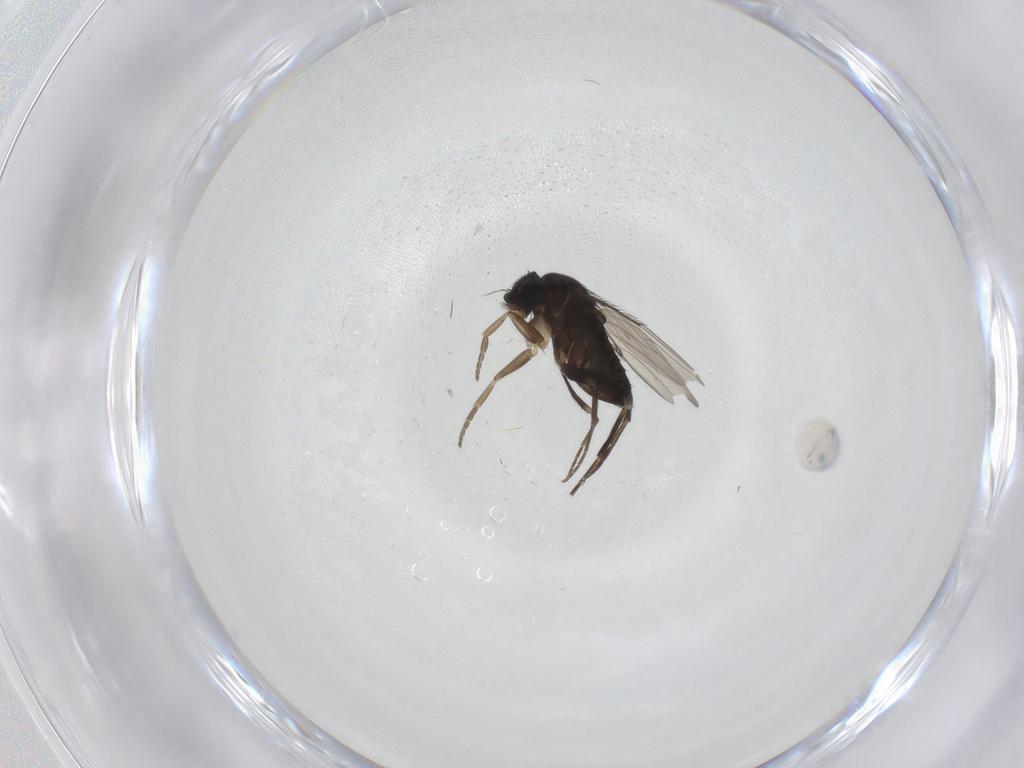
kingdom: Animalia
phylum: Arthropoda
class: Insecta
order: Diptera
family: Phoridae
